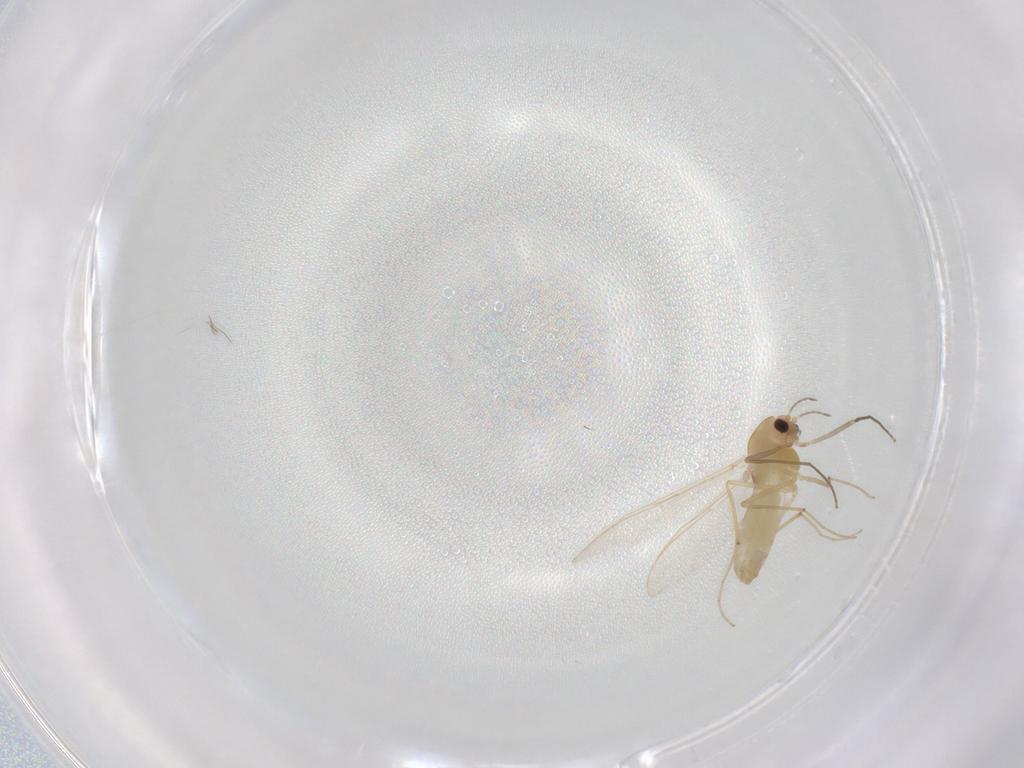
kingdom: Animalia
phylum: Arthropoda
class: Insecta
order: Diptera
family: Chironomidae
